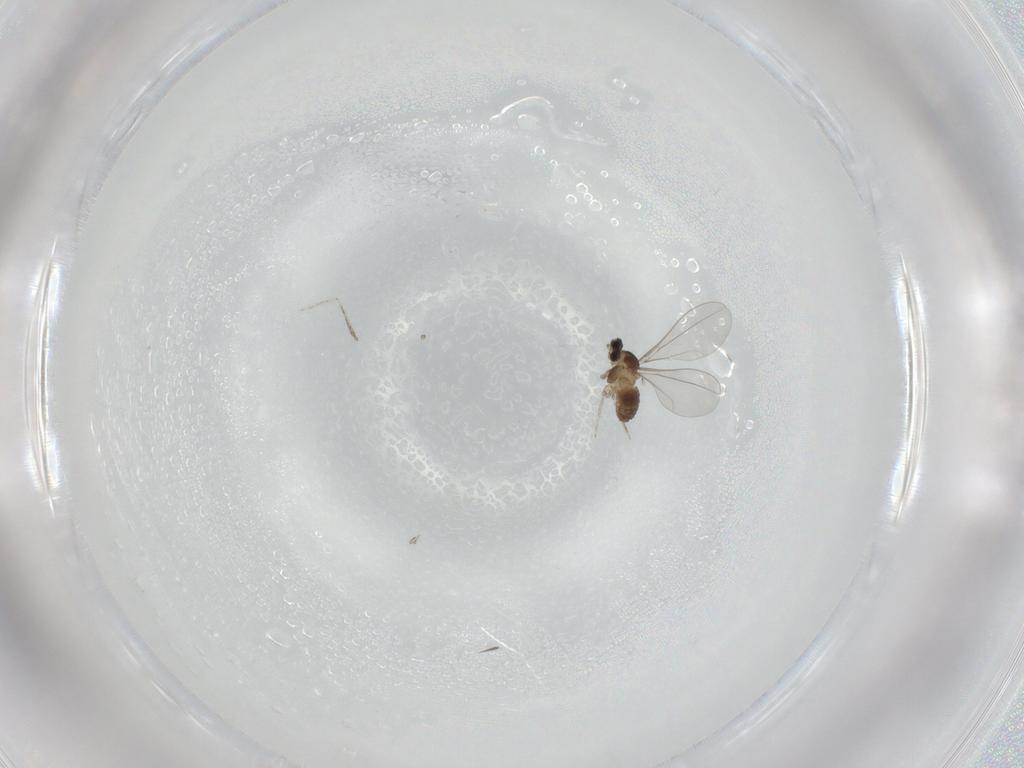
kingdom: Animalia
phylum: Arthropoda
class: Insecta
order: Diptera
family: Cecidomyiidae
